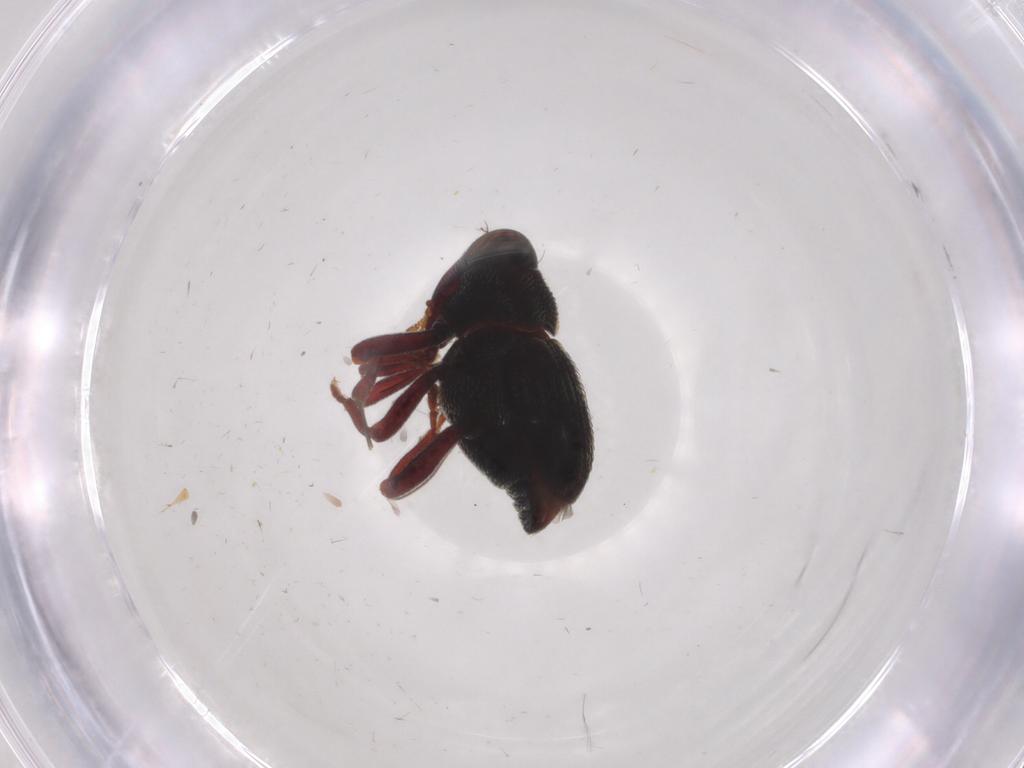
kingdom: Animalia
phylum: Arthropoda
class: Insecta
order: Coleoptera
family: Curculionidae
